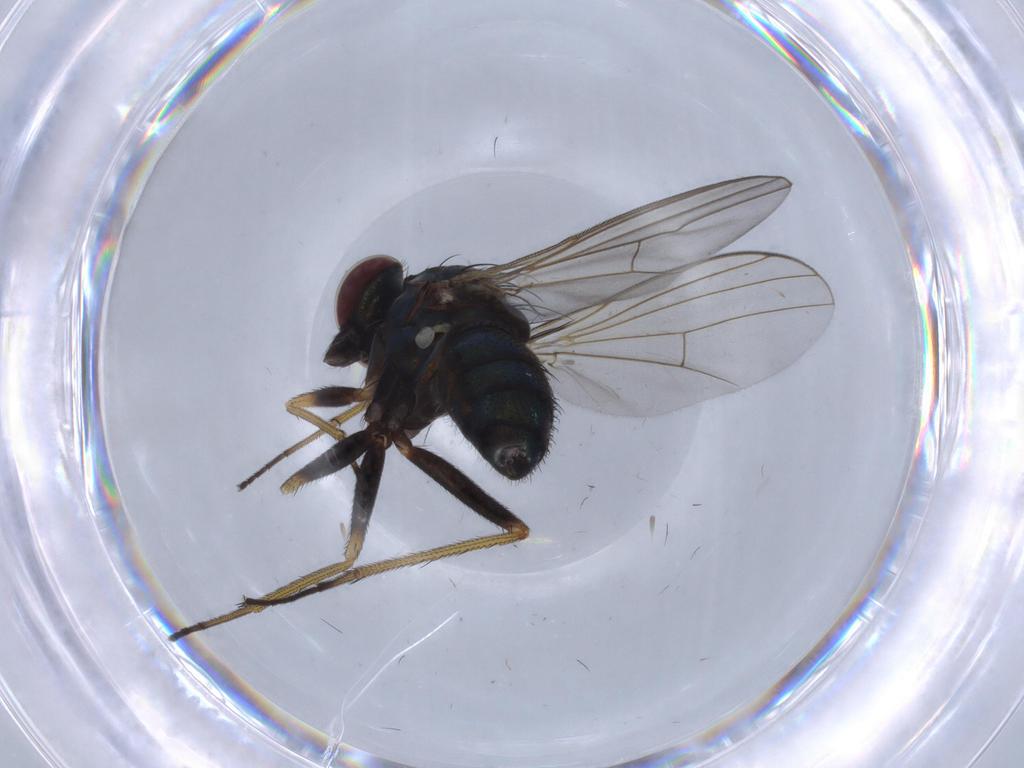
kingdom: Animalia
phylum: Arthropoda
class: Insecta
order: Diptera
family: Dolichopodidae
